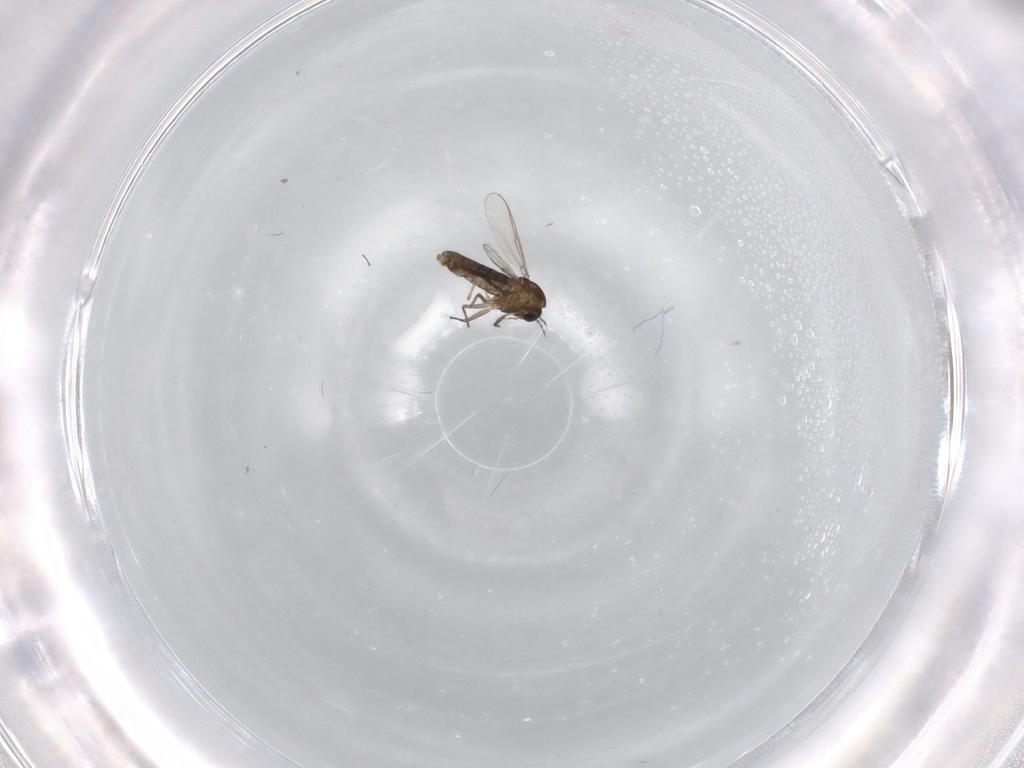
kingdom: Animalia
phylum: Arthropoda
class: Insecta
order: Diptera
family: Chironomidae
